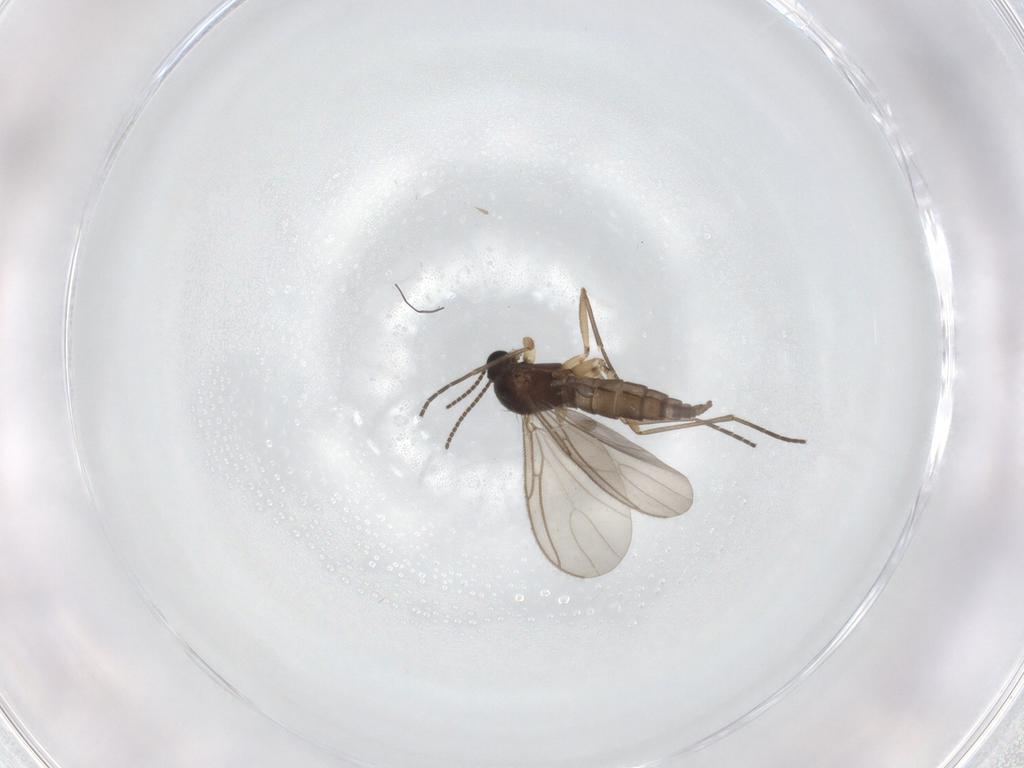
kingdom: Animalia
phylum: Arthropoda
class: Insecta
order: Diptera
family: Sciaridae
